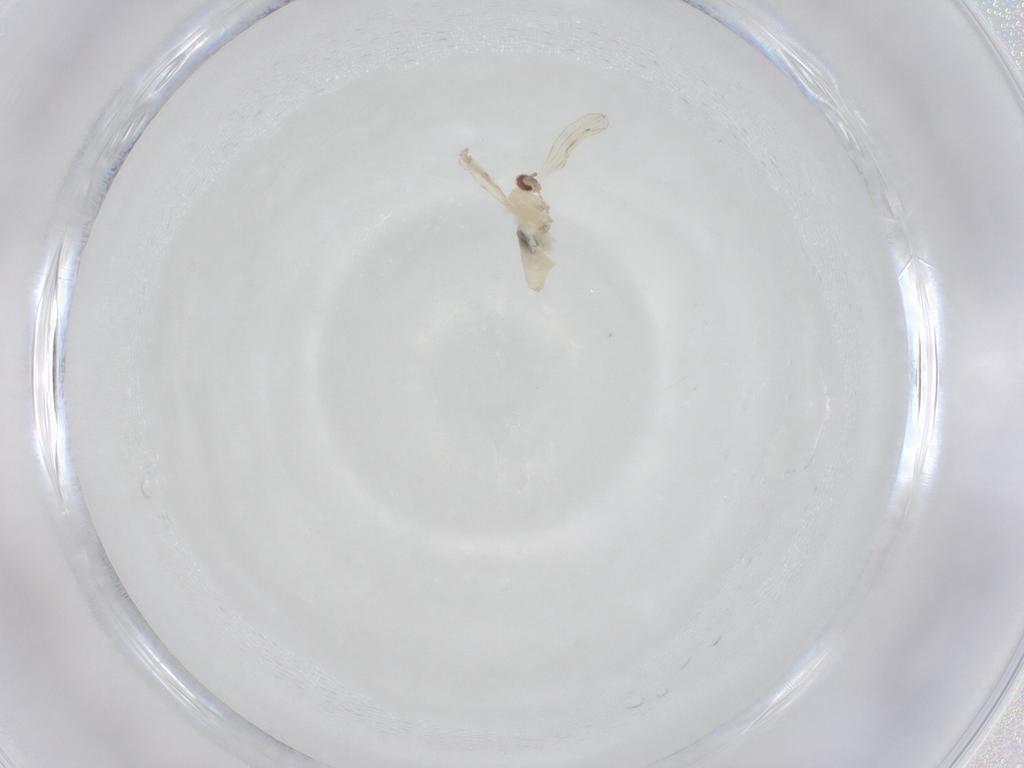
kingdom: Animalia
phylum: Arthropoda
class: Insecta
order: Diptera
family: Cecidomyiidae
